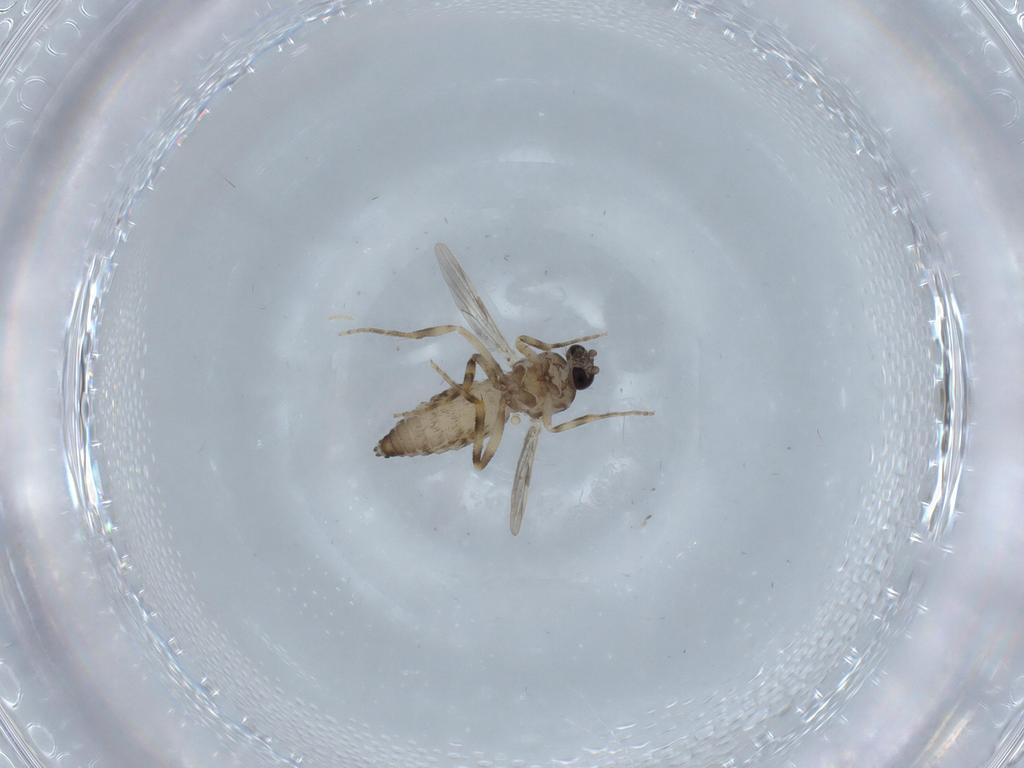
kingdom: Animalia
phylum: Arthropoda
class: Insecta
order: Diptera
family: Ceratopogonidae
